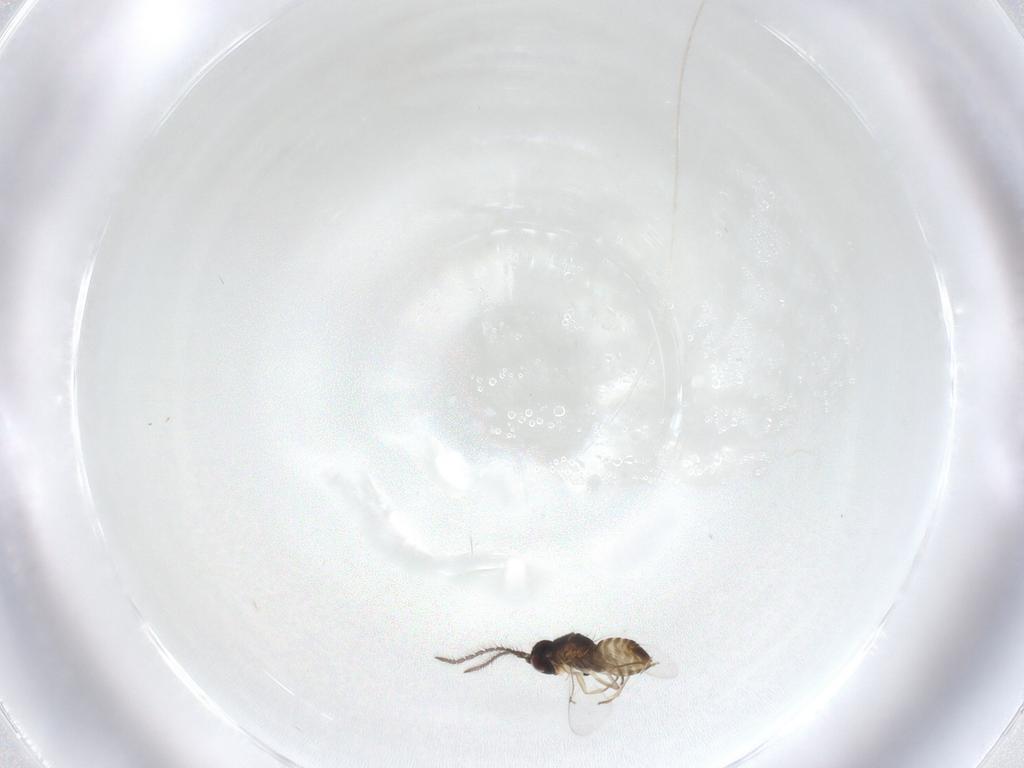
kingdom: Animalia
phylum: Arthropoda
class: Insecta
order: Hymenoptera
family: Encyrtidae
